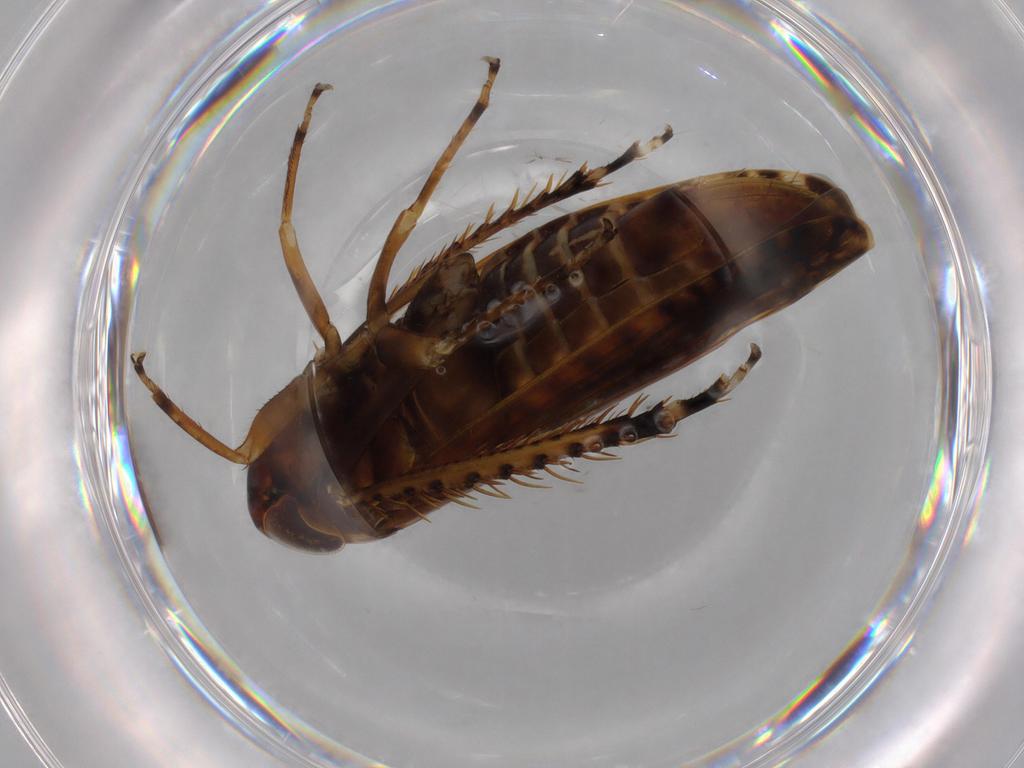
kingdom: Animalia
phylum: Arthropoda
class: Insecta
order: Hemiptera
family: Cicadellidae
